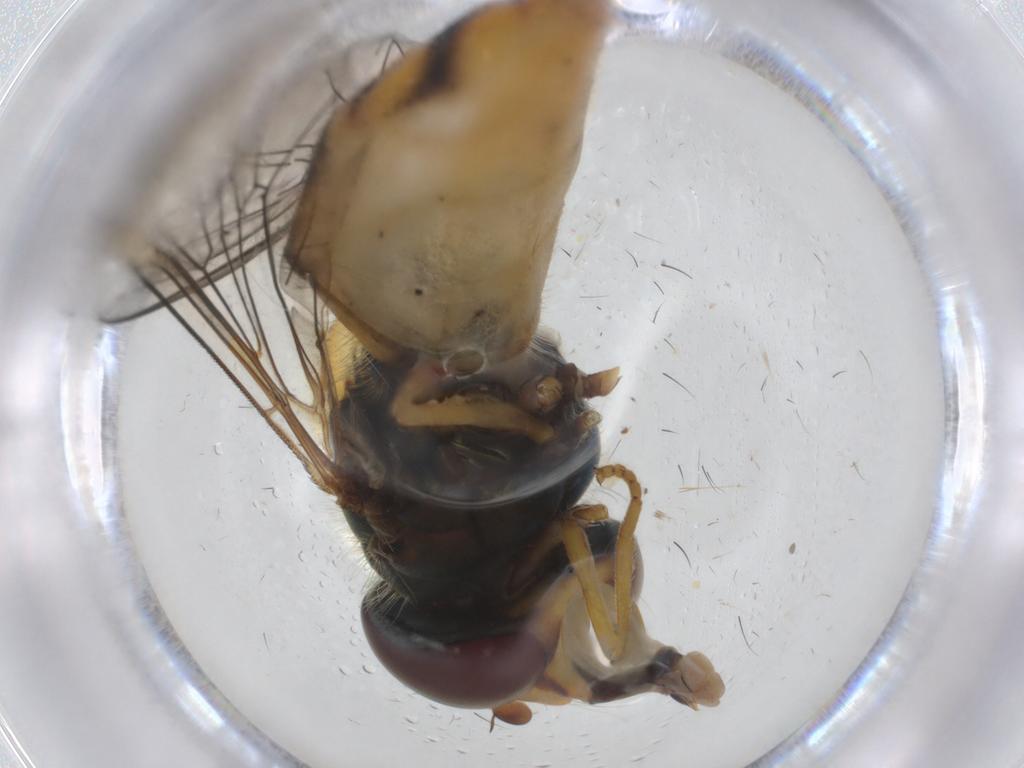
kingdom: Animalia
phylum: Arthropoda
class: Insecta
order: Diptera
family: Syrphidae
